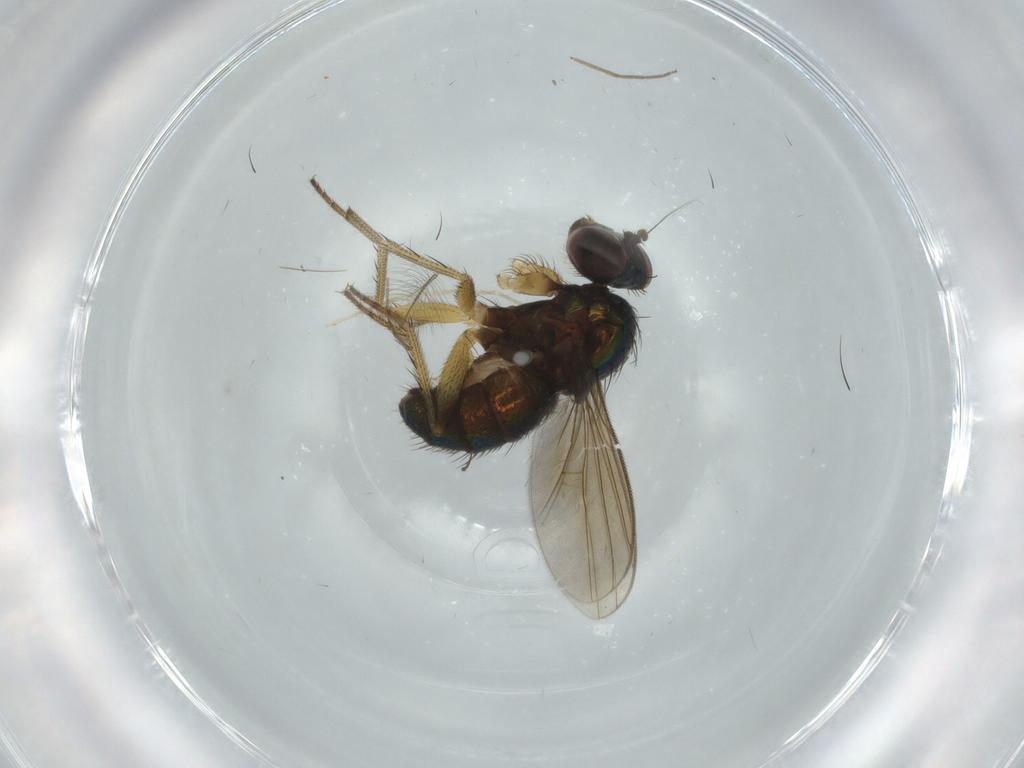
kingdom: Animalia
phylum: Arthropoda
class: Insecta
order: Diptera
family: Dolichopodidae
